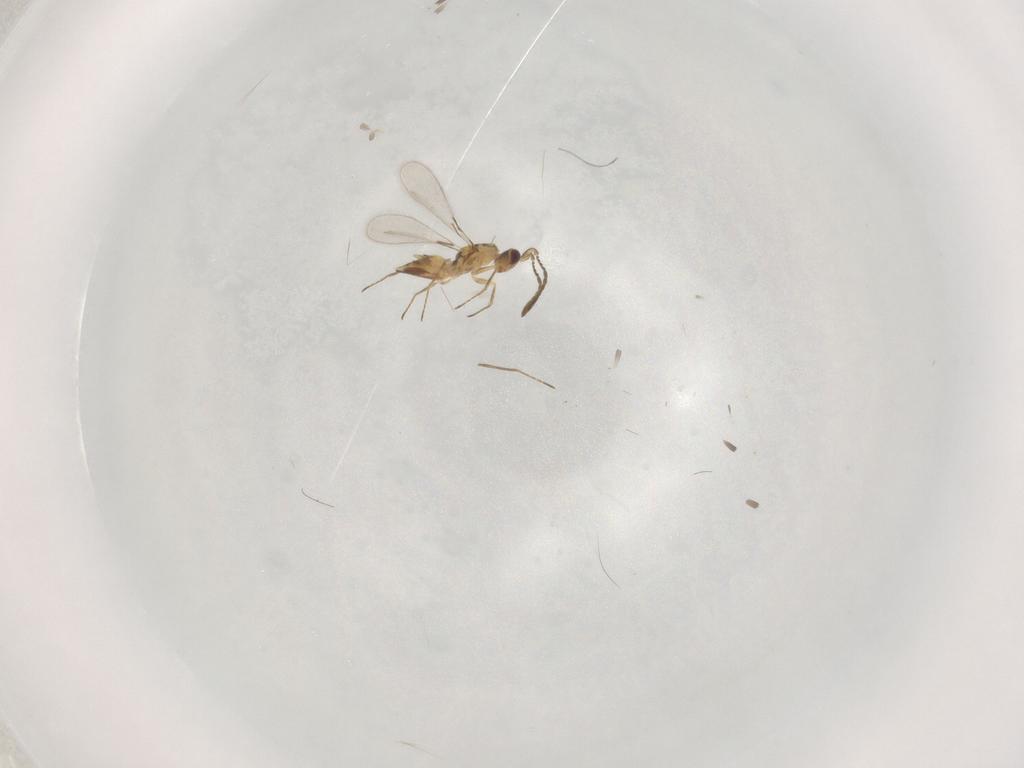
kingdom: Animalia
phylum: Arthropoda
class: Insecta
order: Hymenoptera
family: Mymaridae
